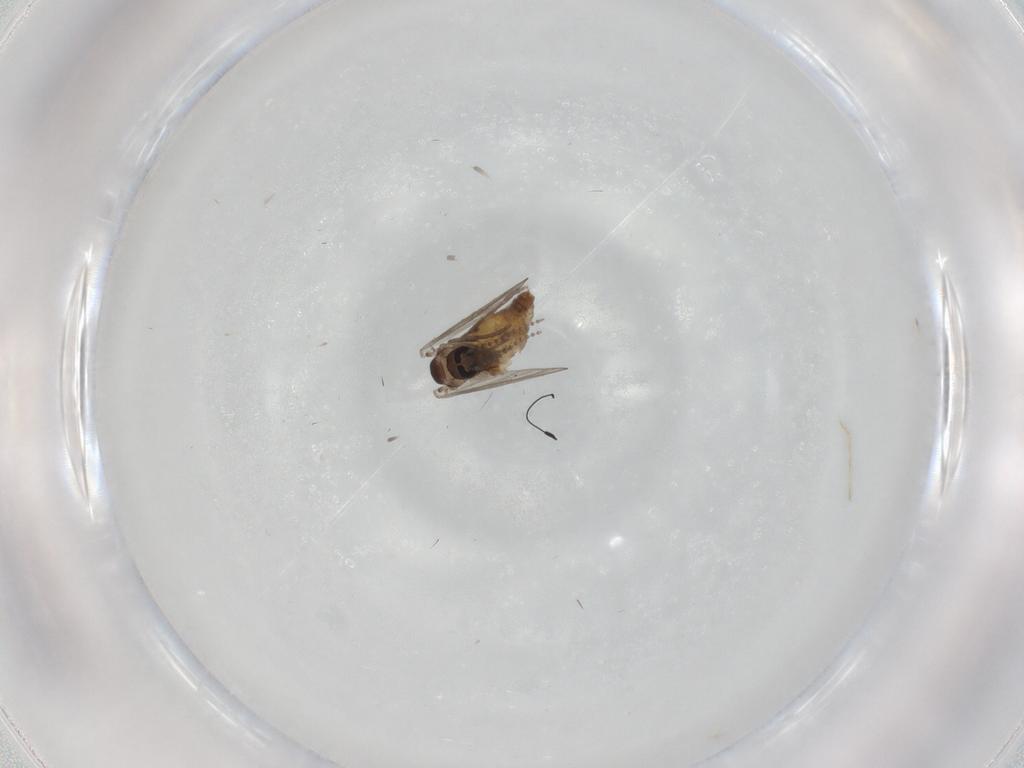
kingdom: Animalia
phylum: Arthropoda
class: Insecta
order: Diptera
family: Psychodidae
